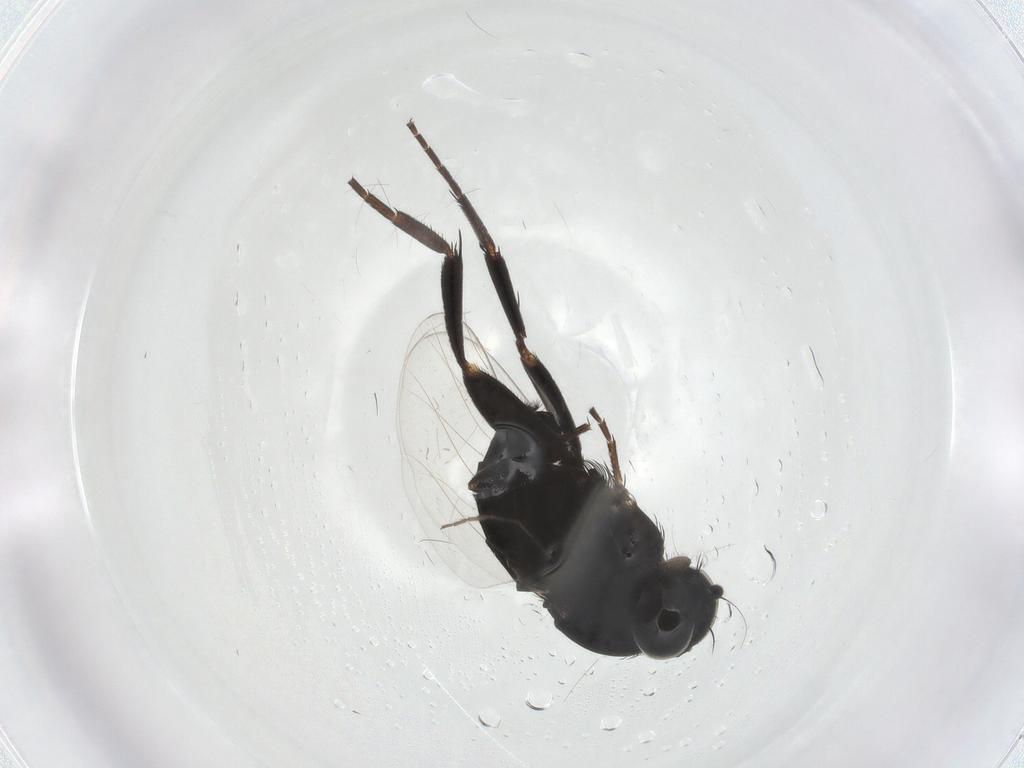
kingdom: Animalia
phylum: Arthropoda
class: Insecta
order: Diptera
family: Phoridae
